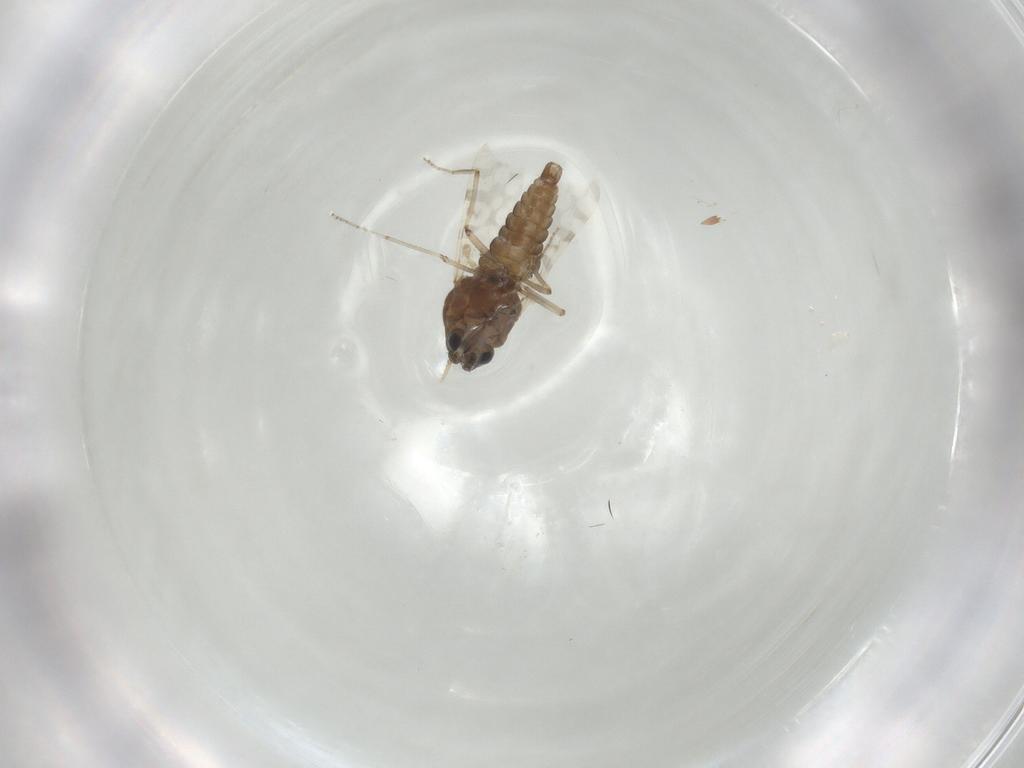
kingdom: Animalia
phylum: Arthropoda
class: Insecta
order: Blattodea
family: Ectobiidae
